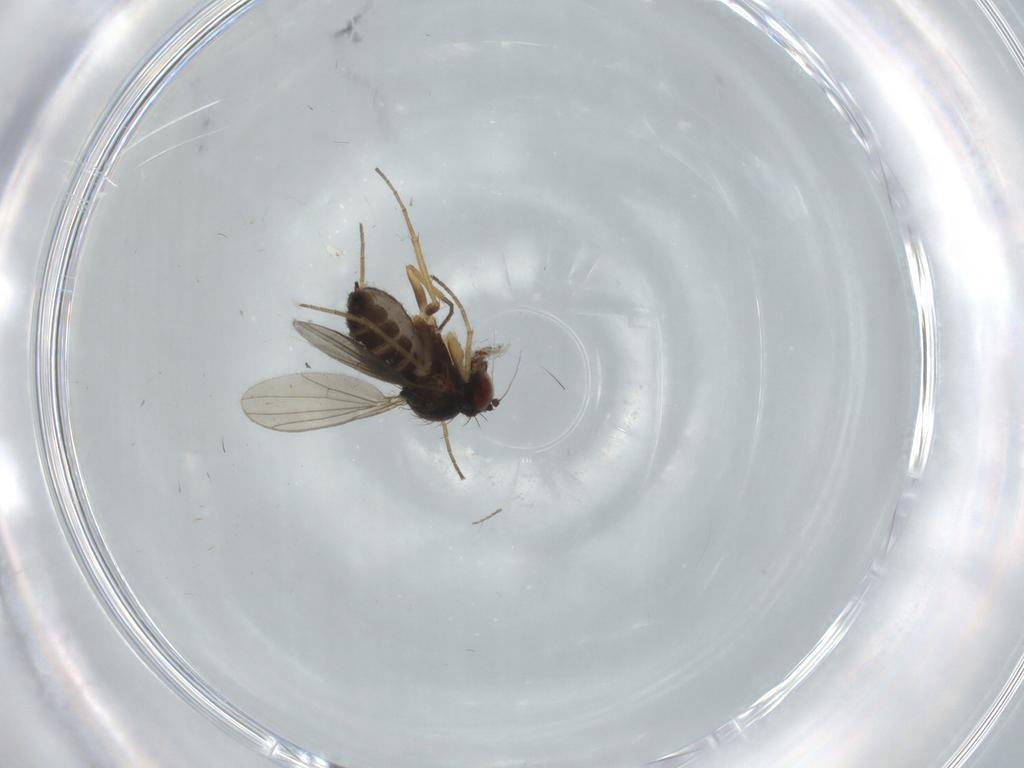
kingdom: Animalia
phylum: Arthropoda
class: Insecta
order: Diptera
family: Dolichopodidae
